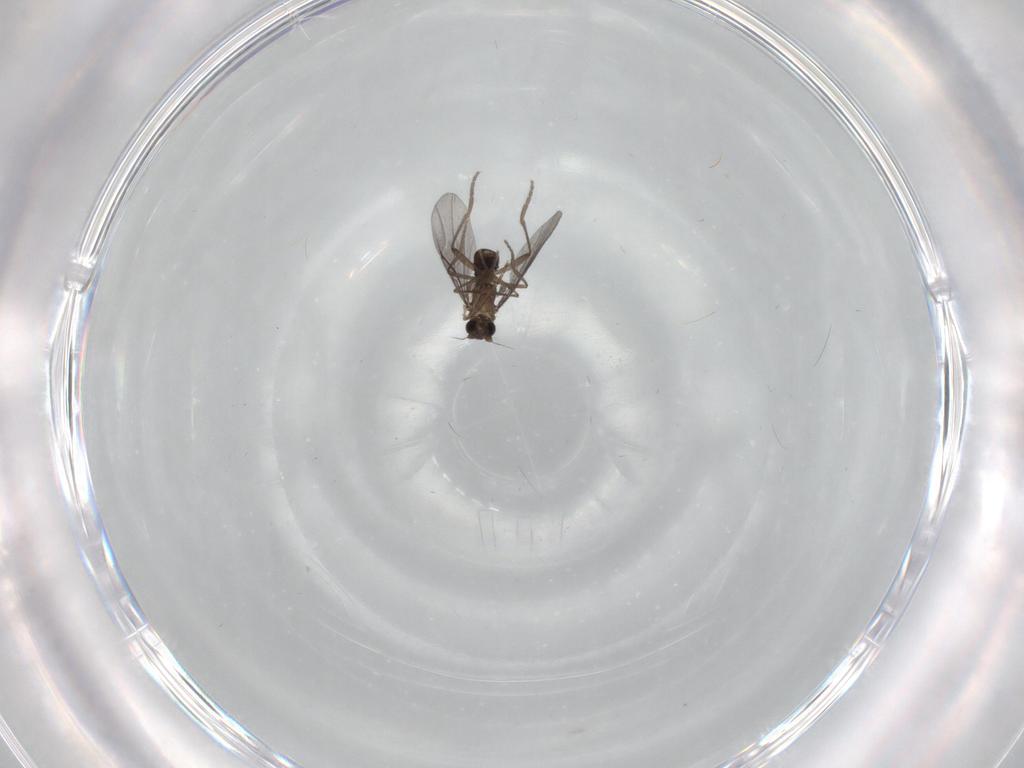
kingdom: Animalia
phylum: Arthropoda
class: Insecta
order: Diptera
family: Phoridae
